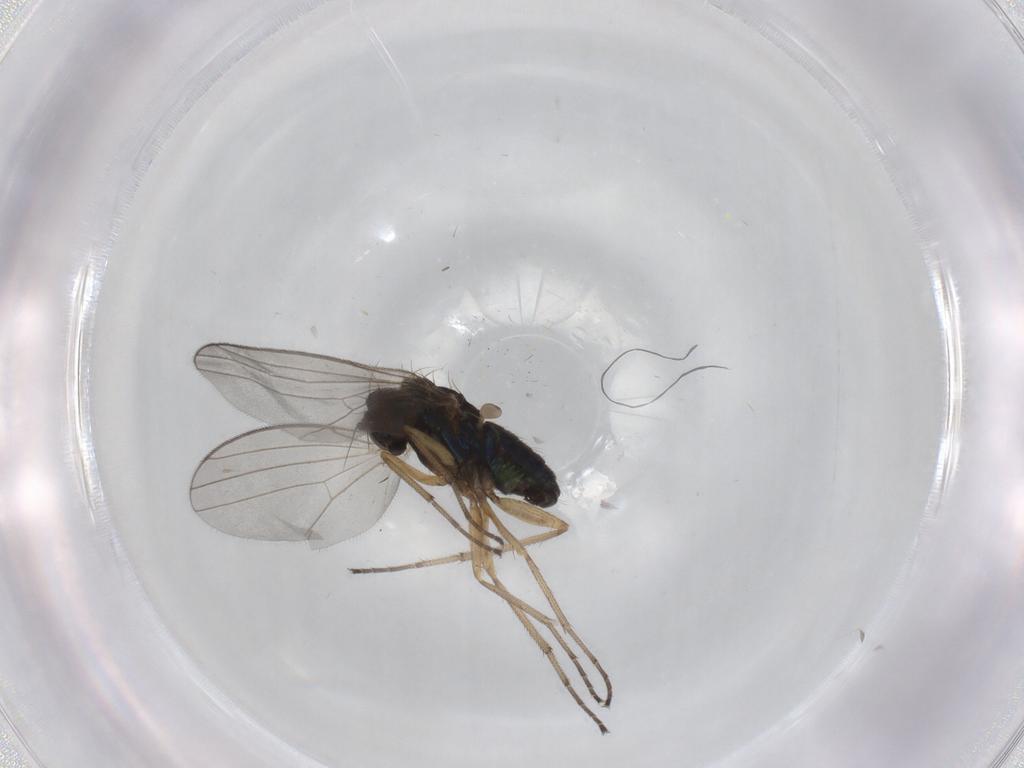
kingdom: Animalia
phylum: Arthropoda
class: Insecta
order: Diptera
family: Dolichopodidae
